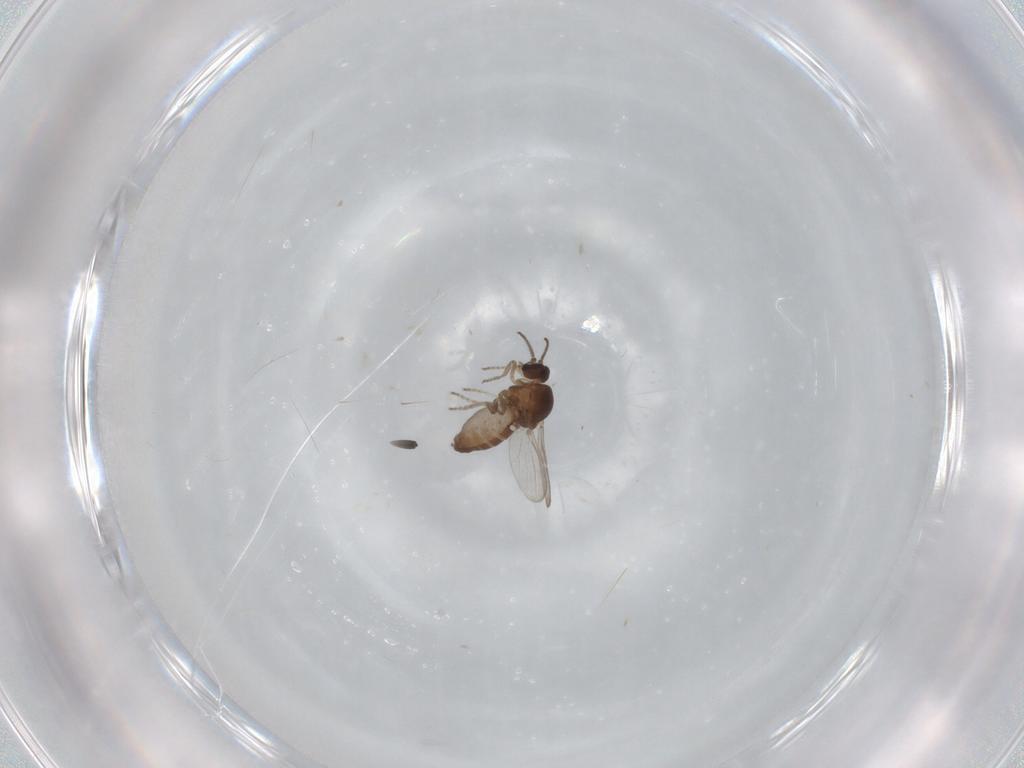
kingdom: Animalia
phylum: Arthropoda
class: Insecta
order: Diptera
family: Ceratopogonidae
